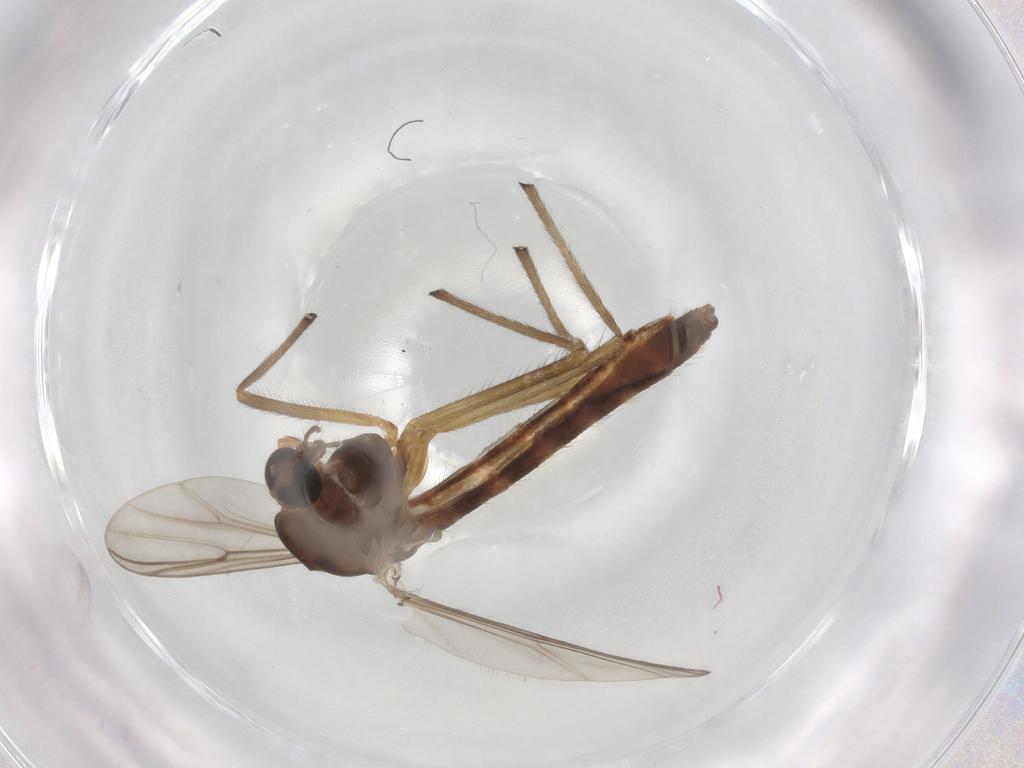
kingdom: Animalia
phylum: Arthropoda
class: Insecta
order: Diptera
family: Chironomidae
